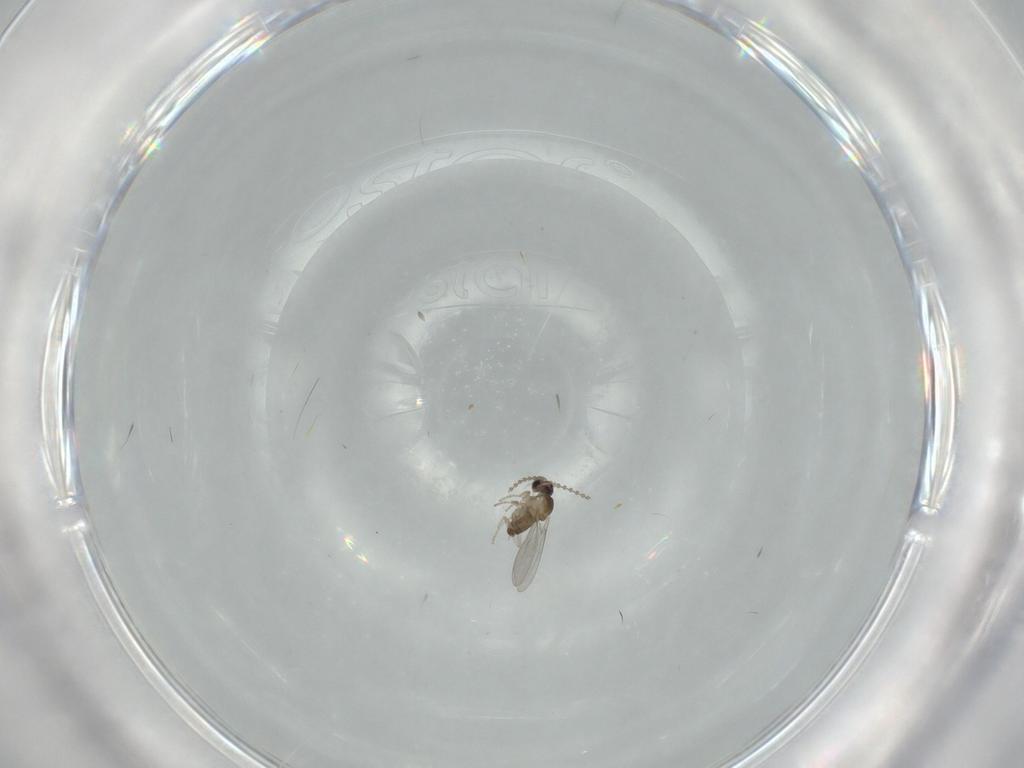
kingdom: Animalia
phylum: Arthropoda
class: Insecta
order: Diptera
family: Cecidomyiidae
